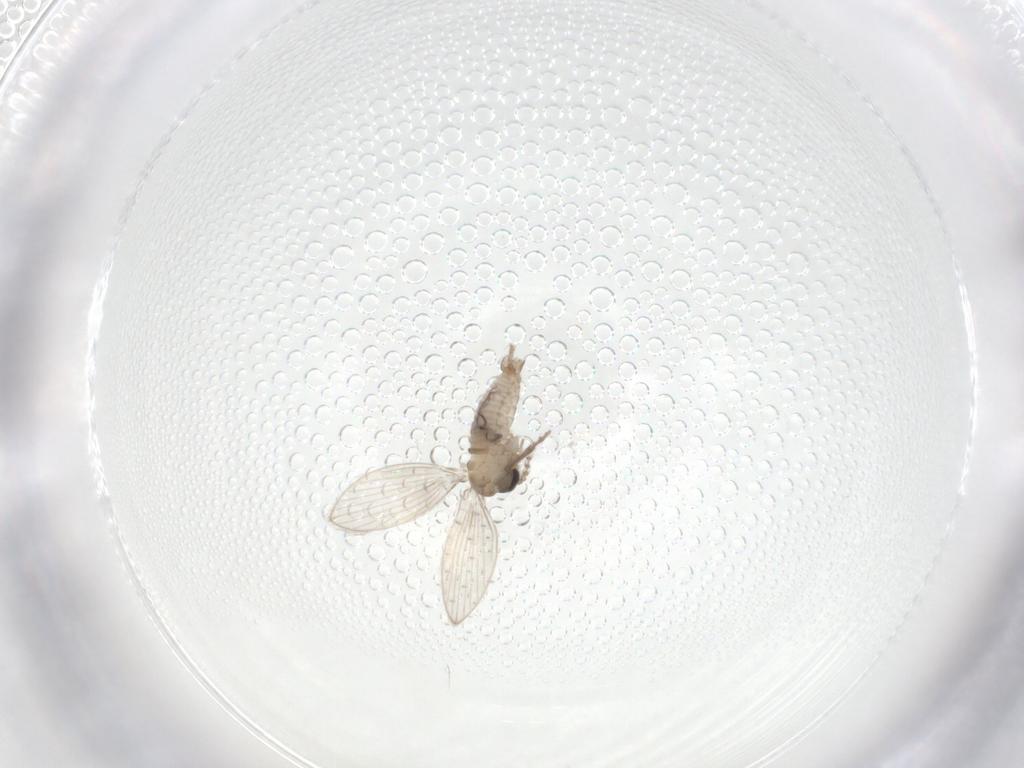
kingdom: Animalia
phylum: Arthropoda
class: Insecta
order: Diptera
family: Psychodidae
